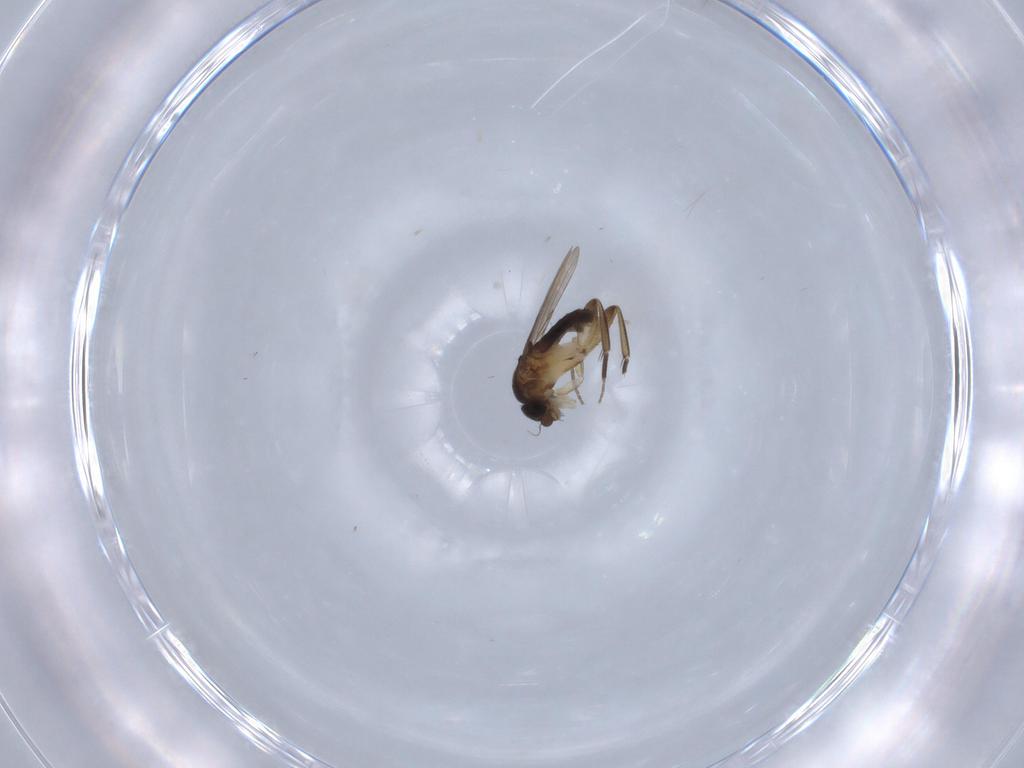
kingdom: Animalia
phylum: Arthropoda
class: Insecta
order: Diptera
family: Phoridae
